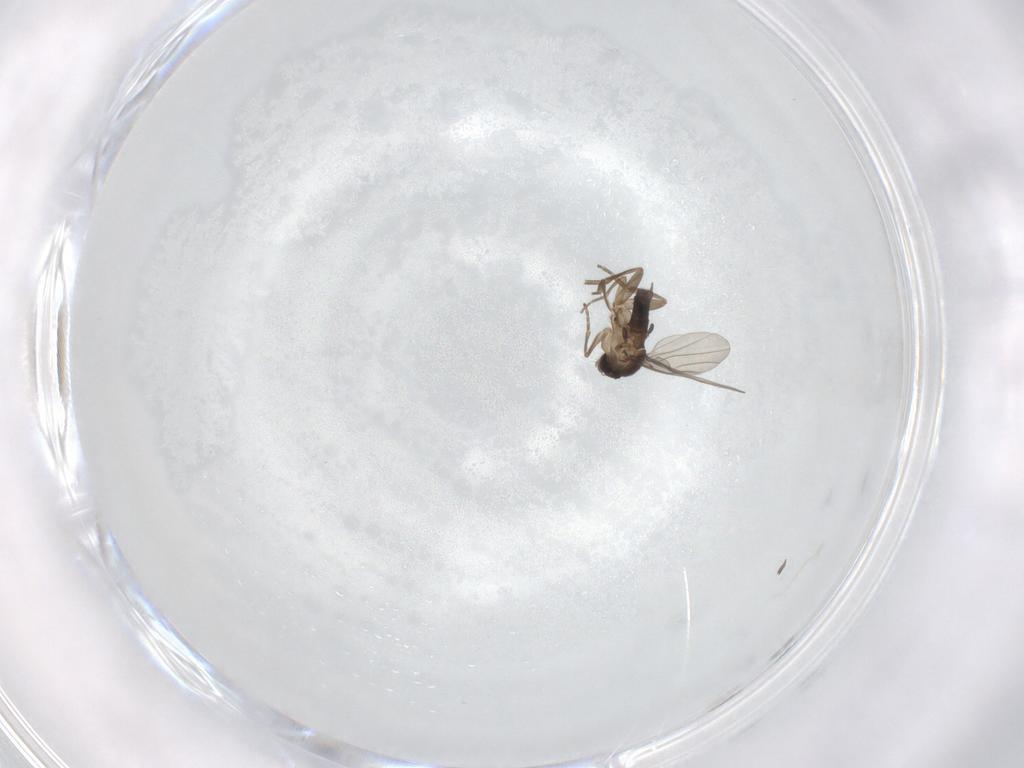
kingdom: Animalia
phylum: Arthropoda
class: Insecta
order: Diptera
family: Phoridae
